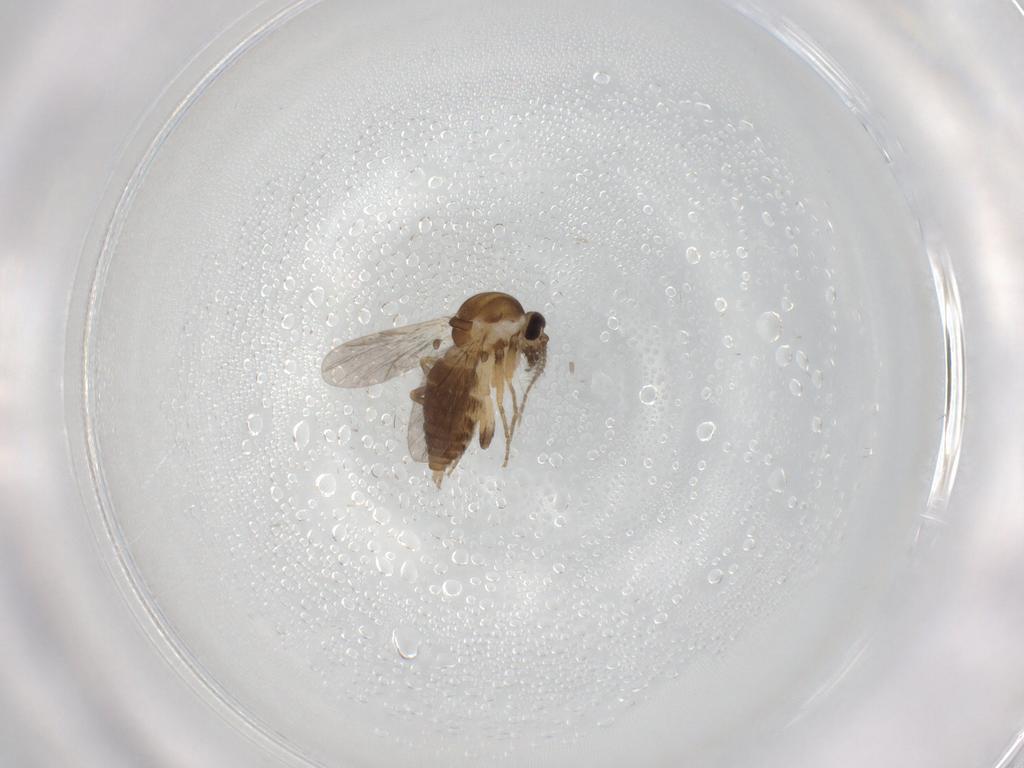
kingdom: Animalia
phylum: Arthropoda
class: Insecta
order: Diptera
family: Ceratopogonidae
